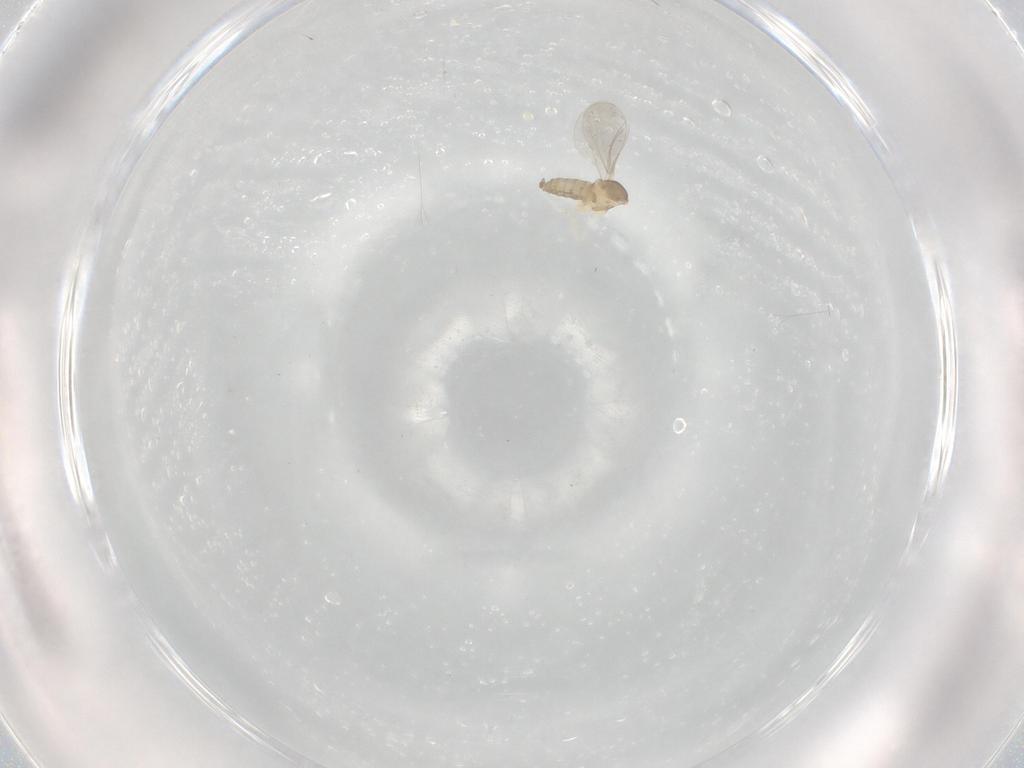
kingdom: Animalia
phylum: Arthropoda
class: Insecta
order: Diptera
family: Cecidomyiidae
